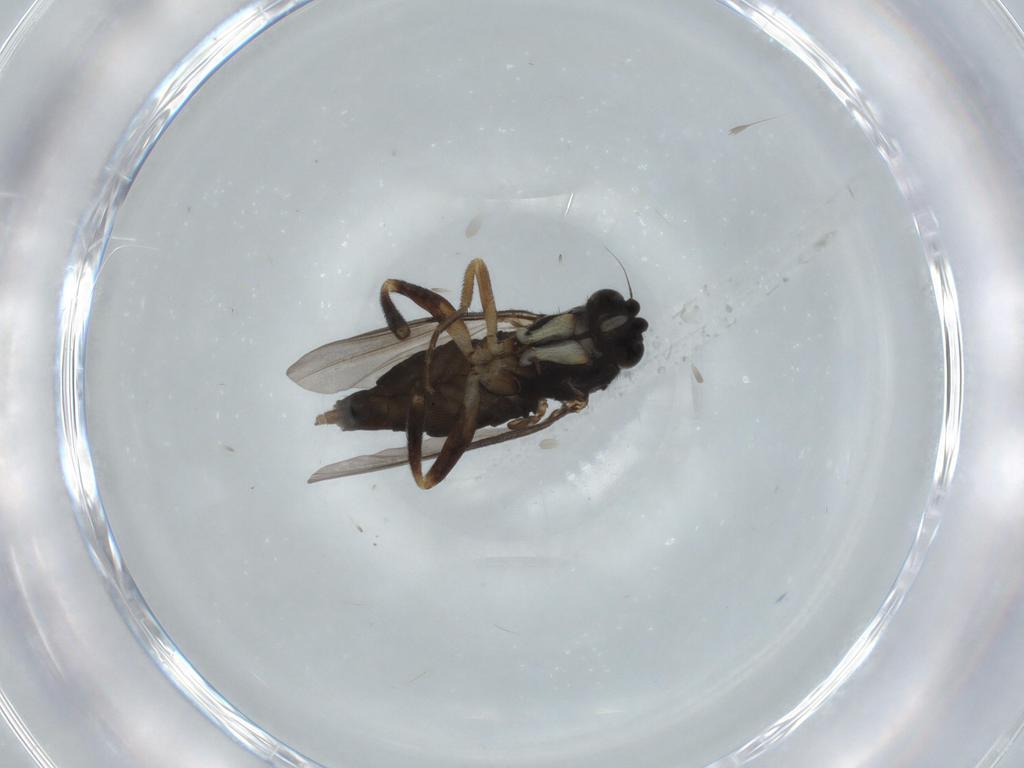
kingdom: Animalia
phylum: Arthropoda
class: Insecta
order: Diptera
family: Phoridae
